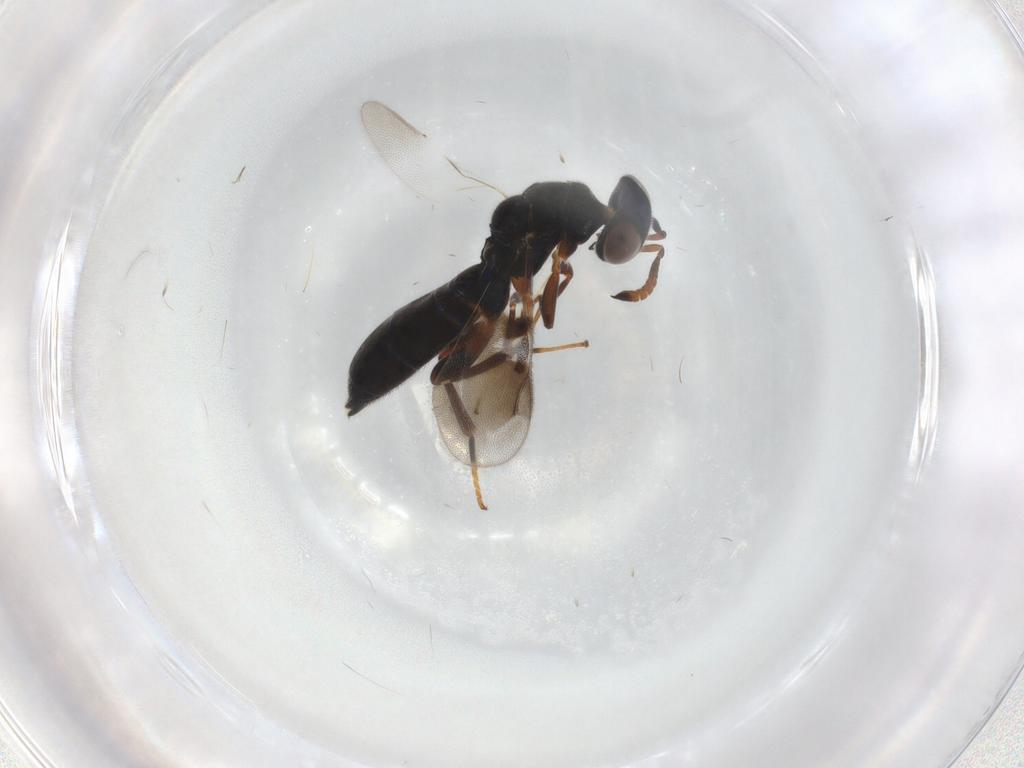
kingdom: Animalia
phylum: Arthropoda
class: Insecta
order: Hymenoptera
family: Cleonyminae
